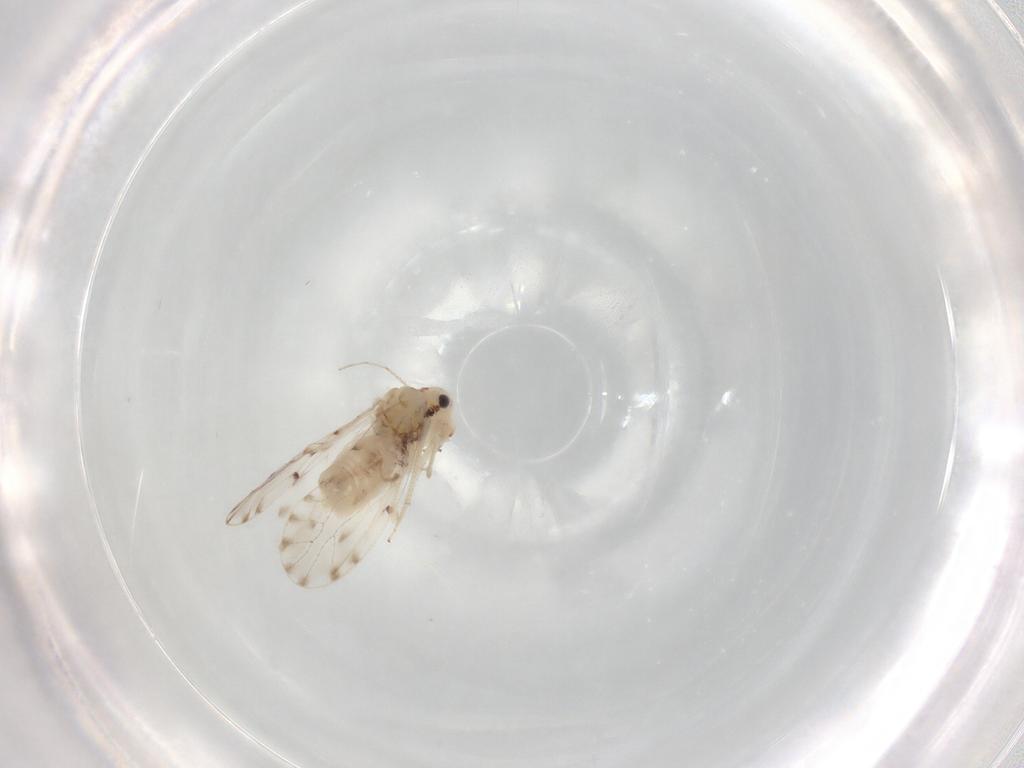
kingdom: Animalia
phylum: Arthropoda
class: Insecta
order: Psocodea
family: Ectopsocidae
